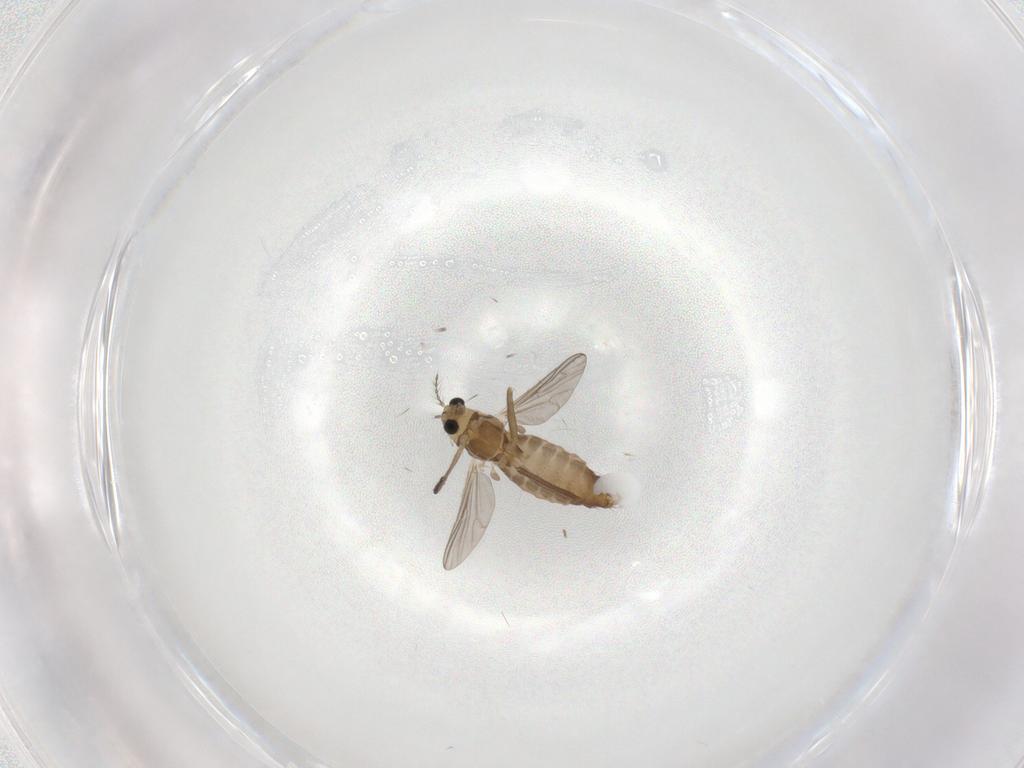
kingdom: Animalia
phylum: Arthropoda
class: Insecta
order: Diptera
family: Chironomidae
